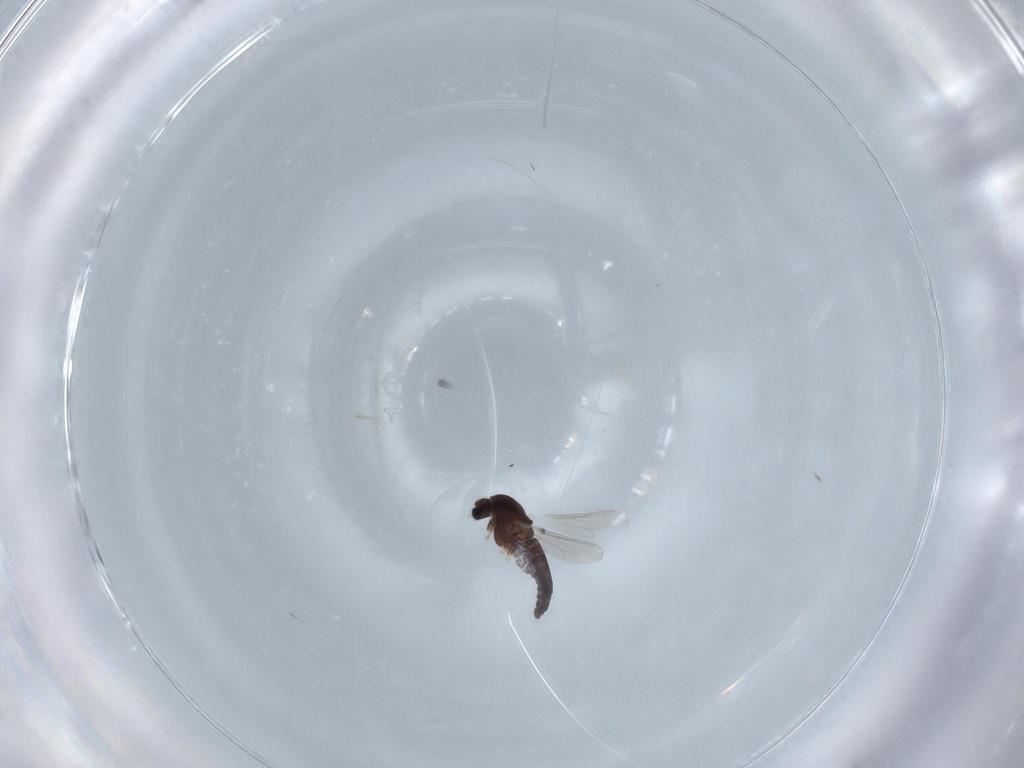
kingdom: Animalia
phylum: Arthropoda
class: Insecta
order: Diptera
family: Chironomidae
